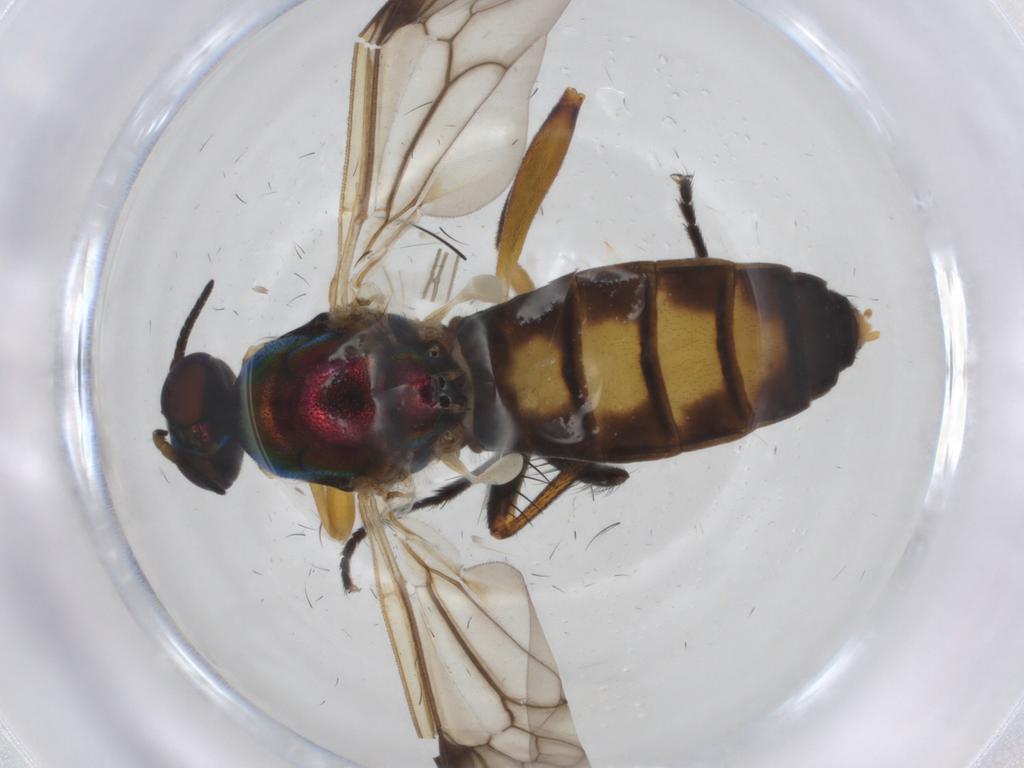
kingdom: Animalia
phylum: Arthropoda
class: Insecta
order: Diptera
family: Stratiomyidae
